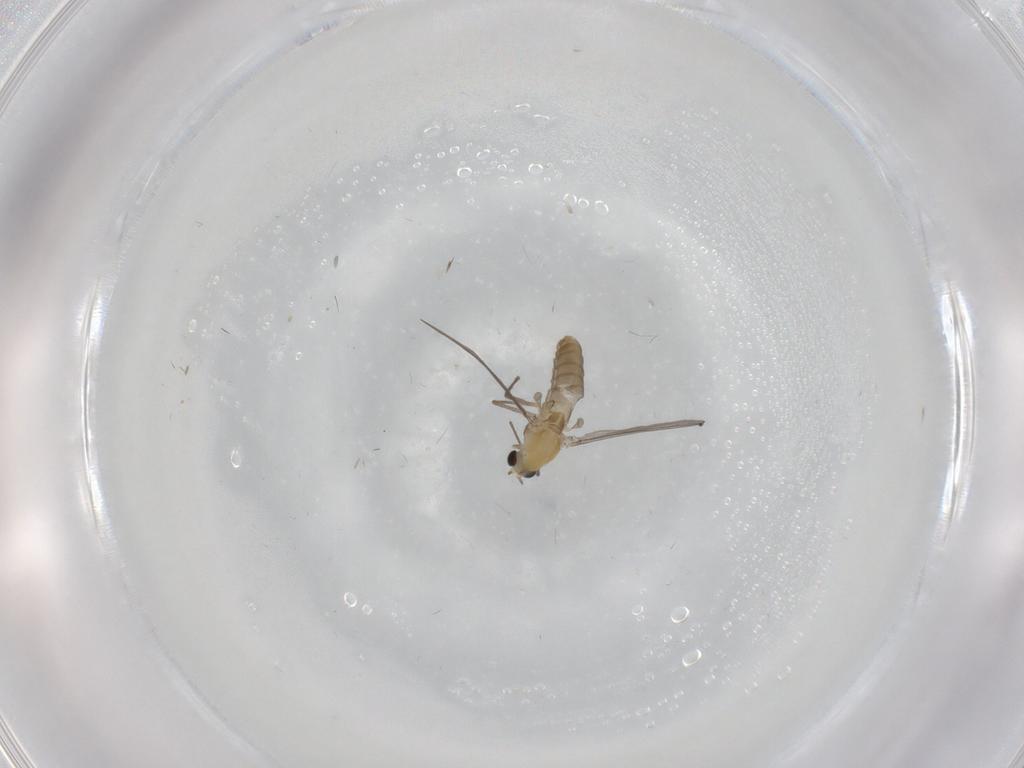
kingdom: Animalia
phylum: Arthropoda
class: Insecta
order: Diptera
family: Chironomidae
